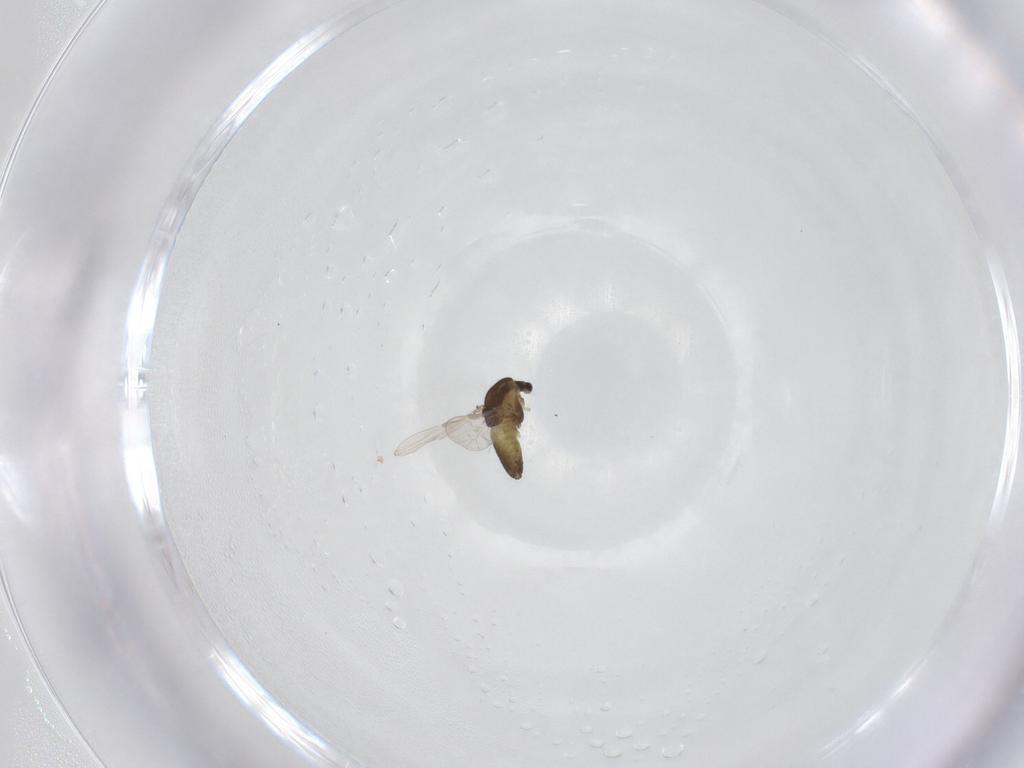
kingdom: Animalia
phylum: Arthropoda
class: Insecta
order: Diptera
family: Chironomidae
